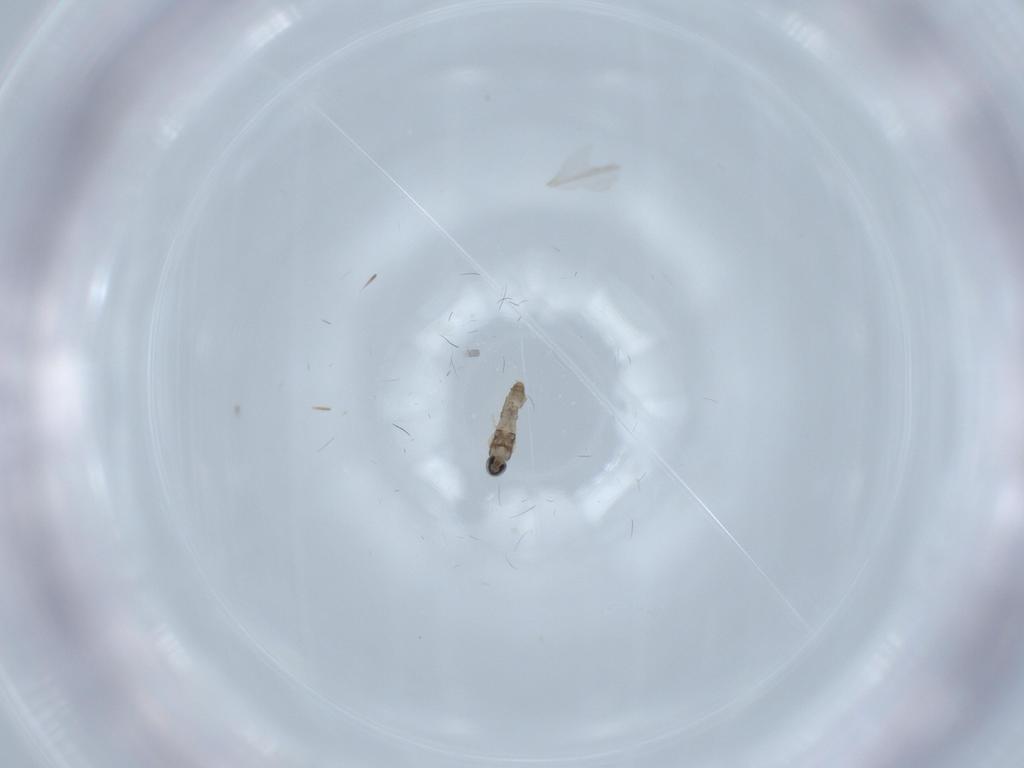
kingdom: Animalia
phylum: Arthropoda
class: Insecta
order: Diptera
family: Cecidomyiidae
